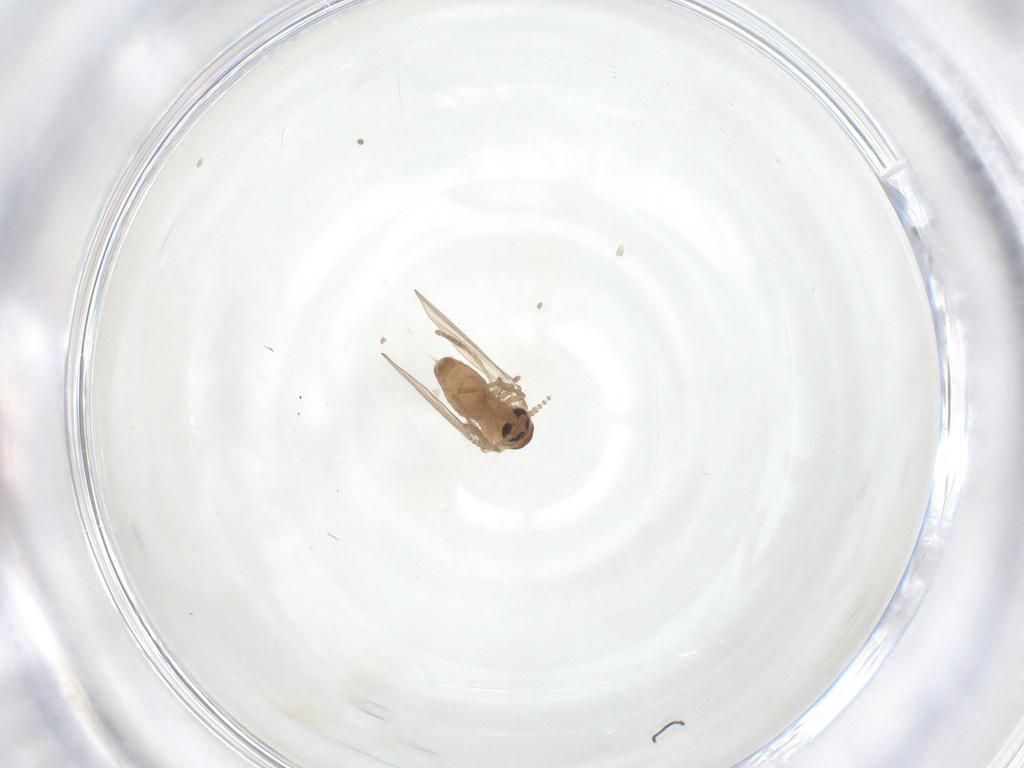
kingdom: Animalia
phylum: Arthropoda
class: Insecta
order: Diptera
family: Psychodidae
